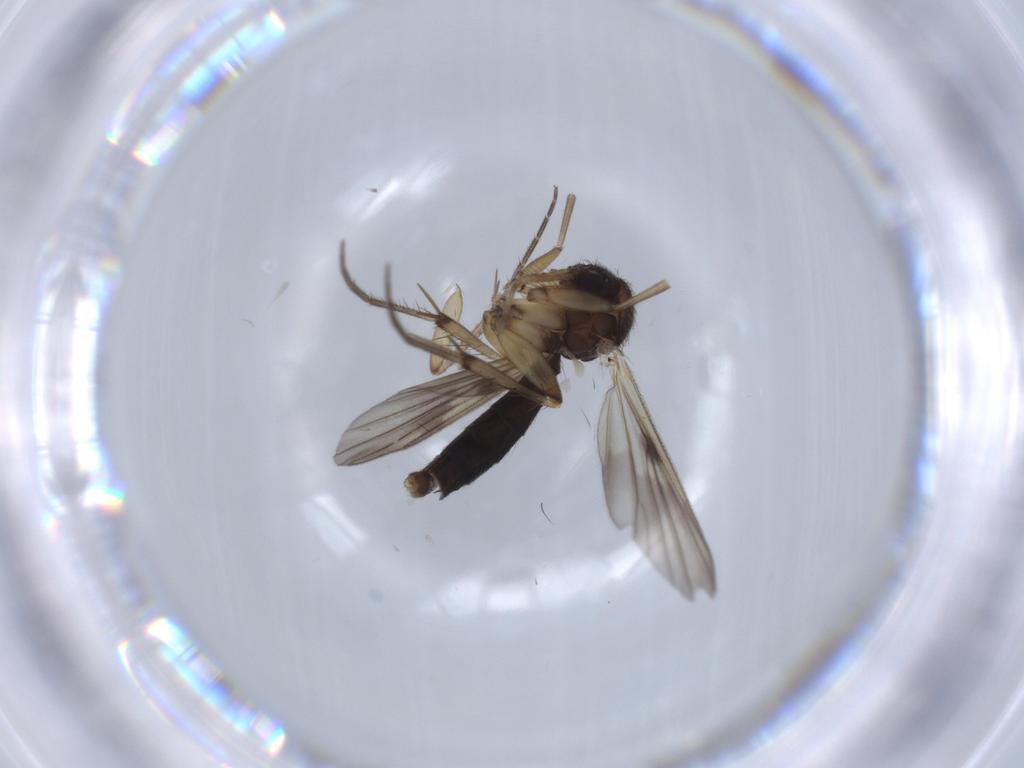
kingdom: Animalia
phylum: Arthropoda
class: Insecta
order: Diptera
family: Mycetophilidae
